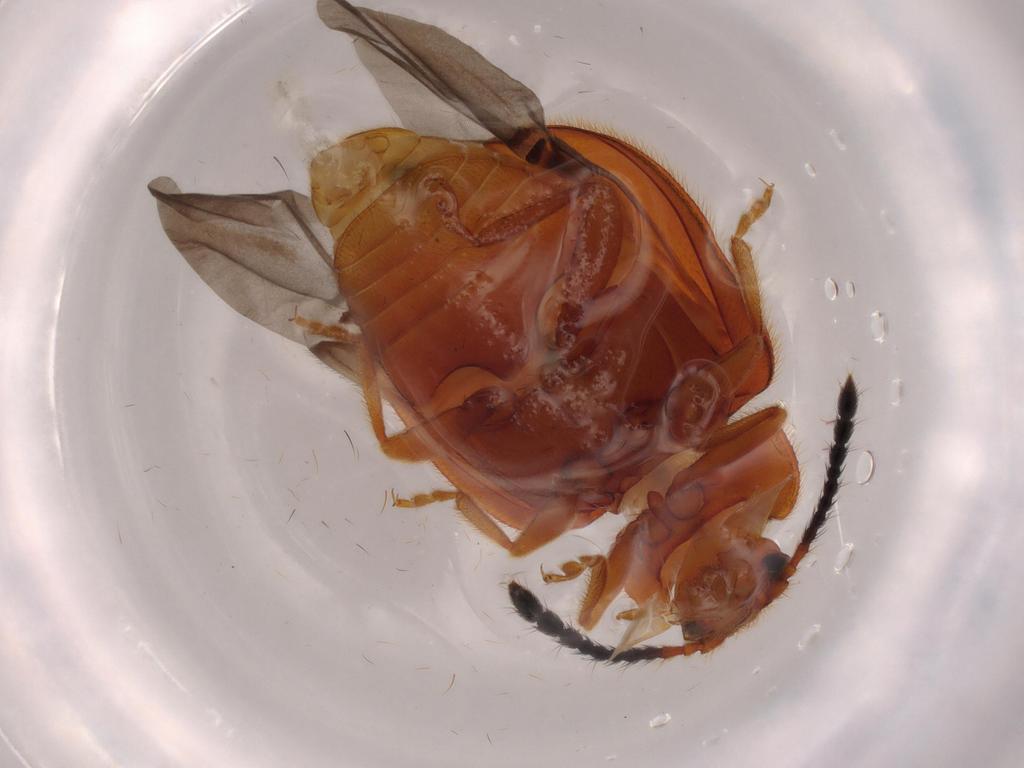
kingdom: Animalia
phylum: Arthropoda
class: Insecta
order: Coleoptera
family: Endomychidae
